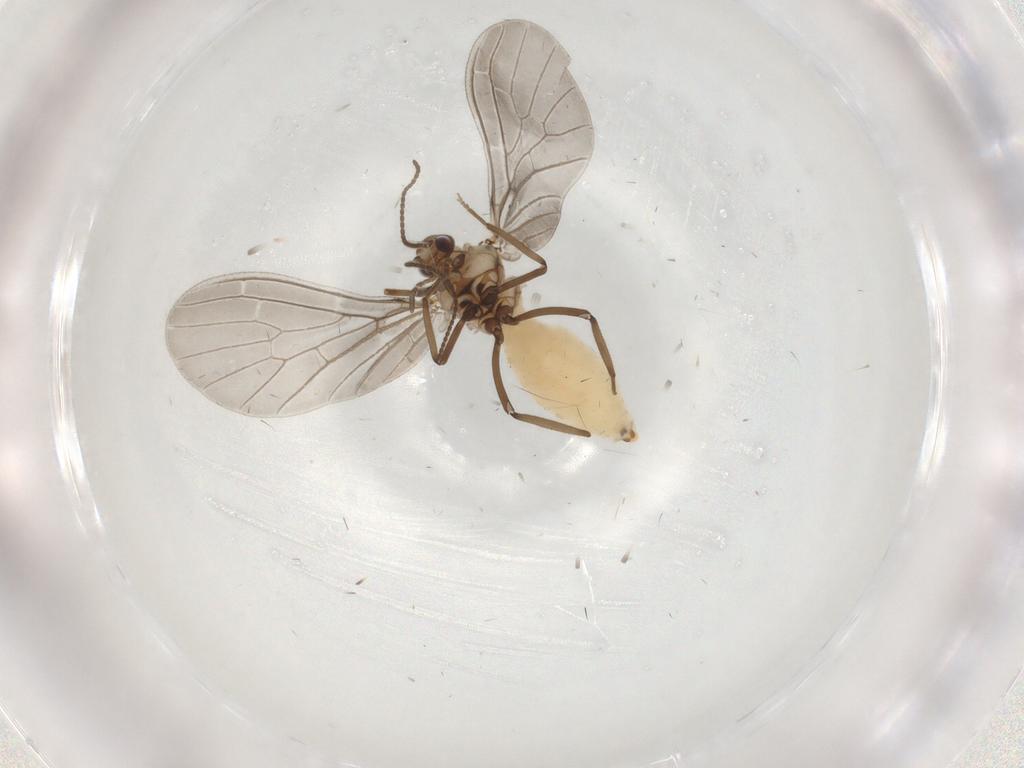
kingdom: Animalia
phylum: Arthropoda
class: Insecta
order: Neuroptera
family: Coniopterygidae
